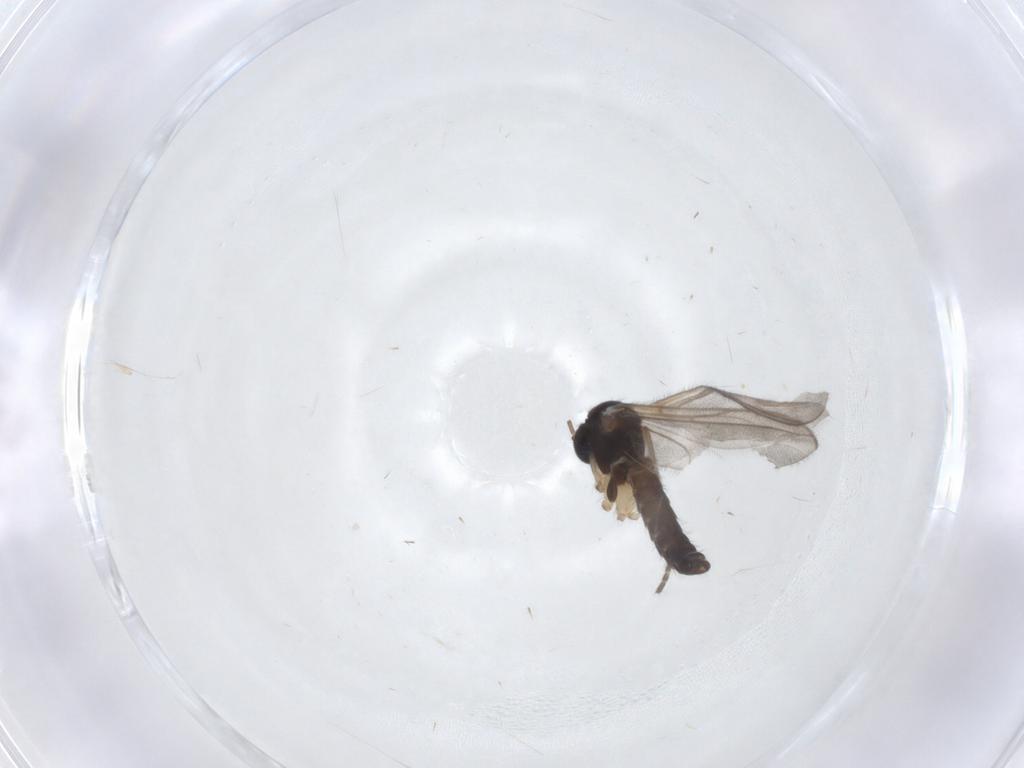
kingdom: Animalia
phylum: Arthropoda
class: Insecta
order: Diptera
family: Mycetophilidae
